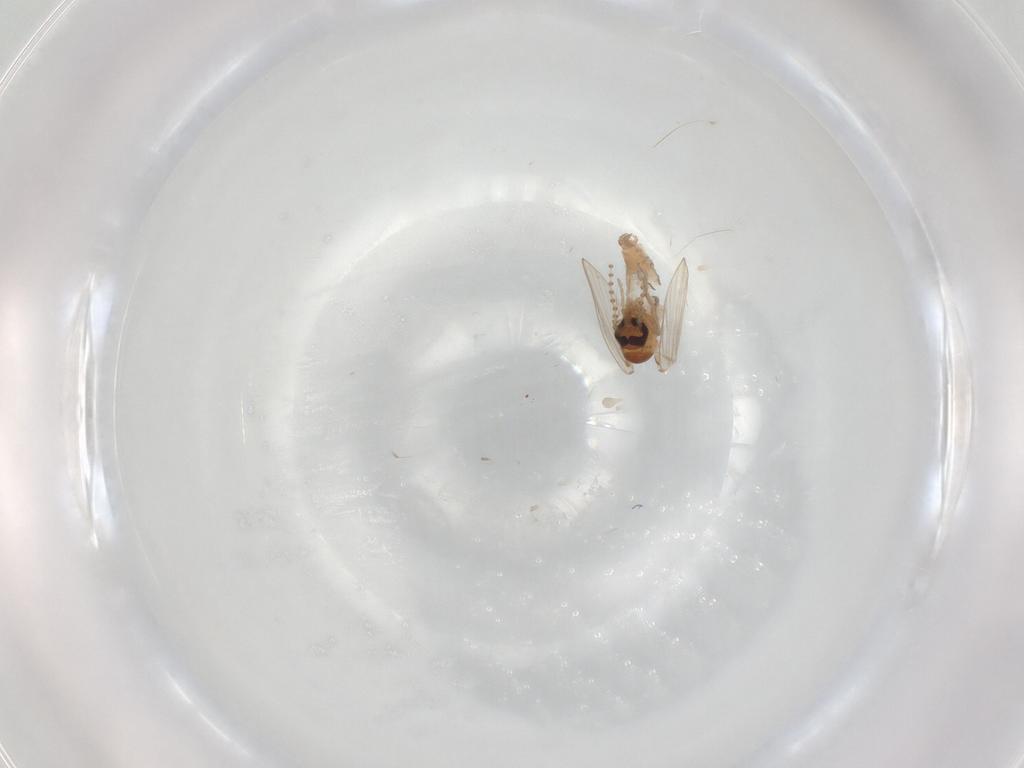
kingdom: Animalia
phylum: Arthropoda
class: Insecta
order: Diptera
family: Psychodidae
